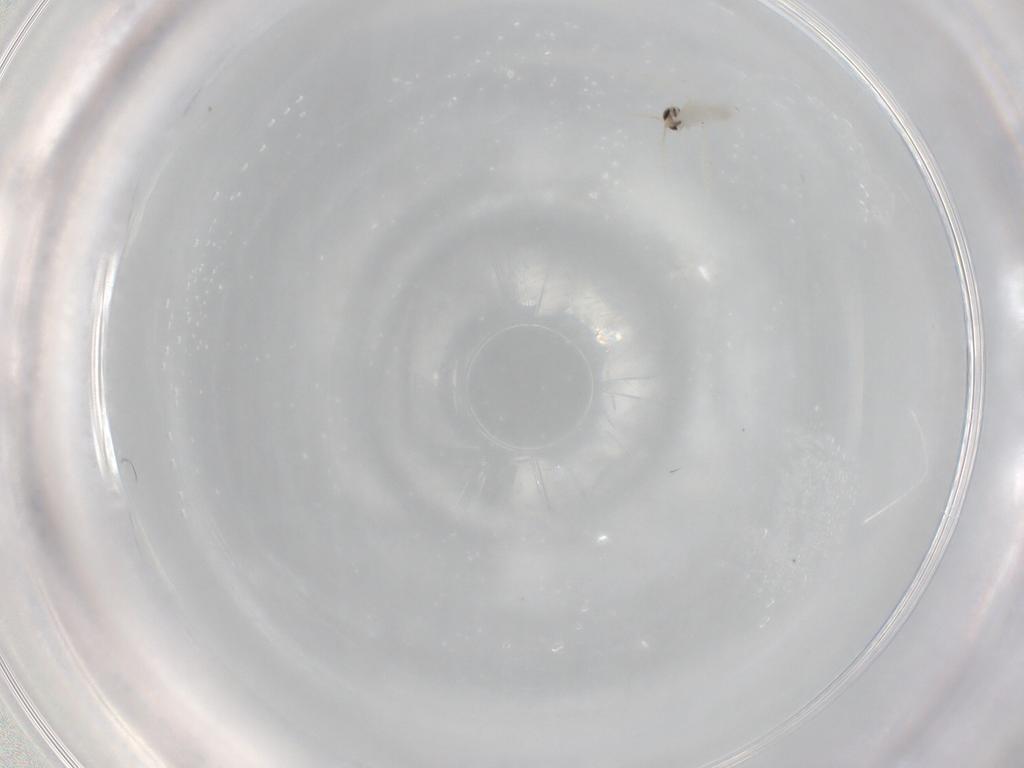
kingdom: Animalia
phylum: Arthropoda
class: Insecta
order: Diptera
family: Cecidomyiidae
